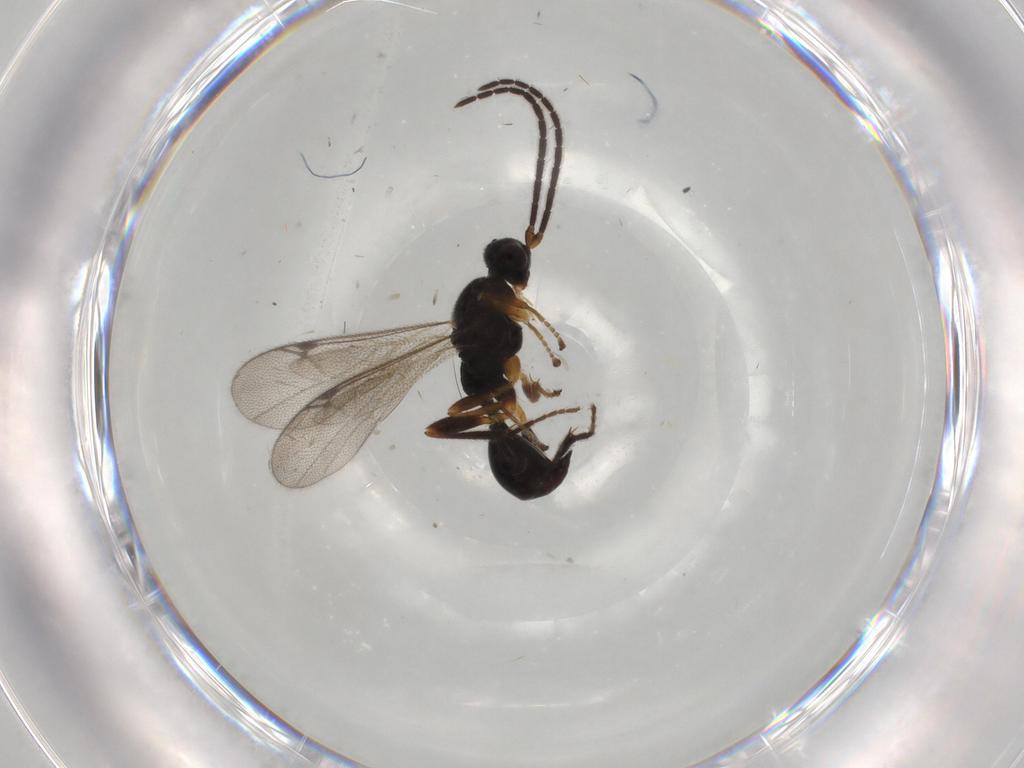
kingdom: Animalia
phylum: Arthropoda
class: Insecta
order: Hymenoptera
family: Proctotrupidae
